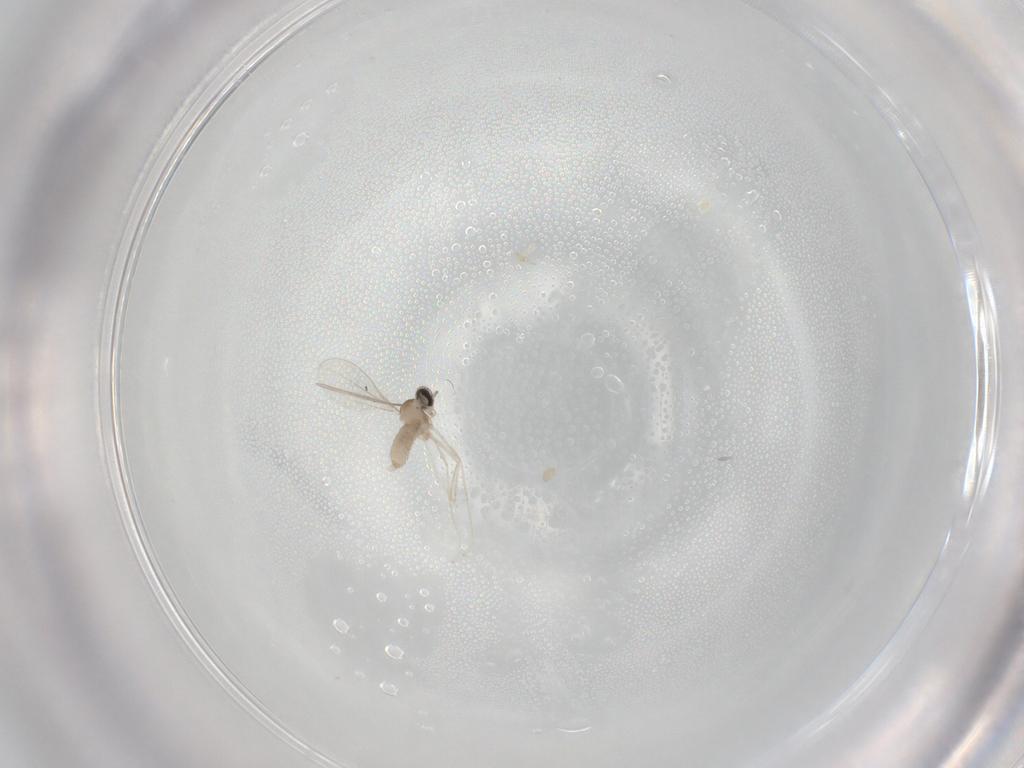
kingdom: Animalia
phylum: Arthropoda
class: Insecta
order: Diptera
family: Cecidomyiidae
